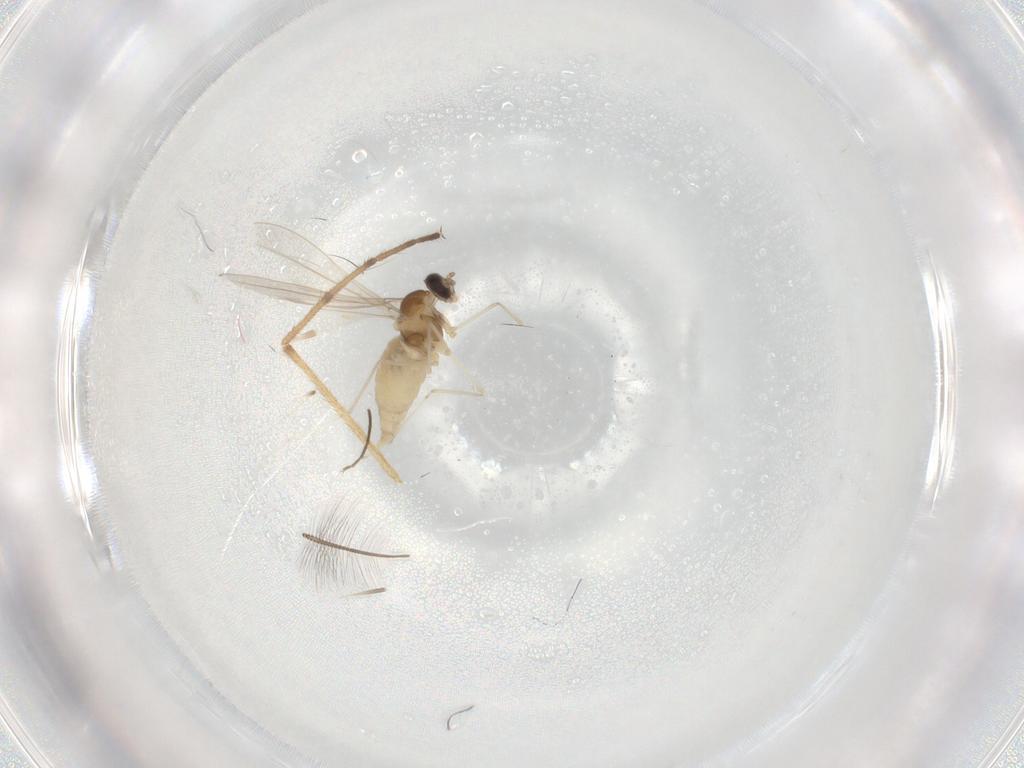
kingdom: Animalia
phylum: Arthropoda
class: Insecta
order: Diptera
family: Cecidomyiidae
